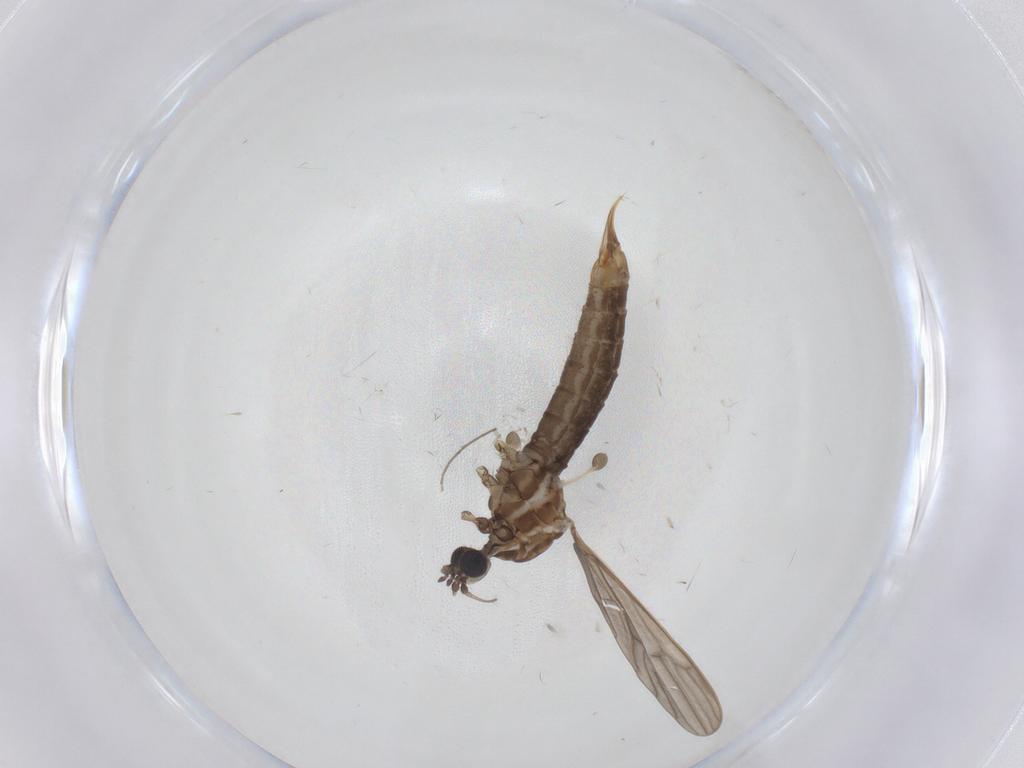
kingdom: Animalia
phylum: Arthropoda
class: Insecta
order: Diptera
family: Limoniidae
